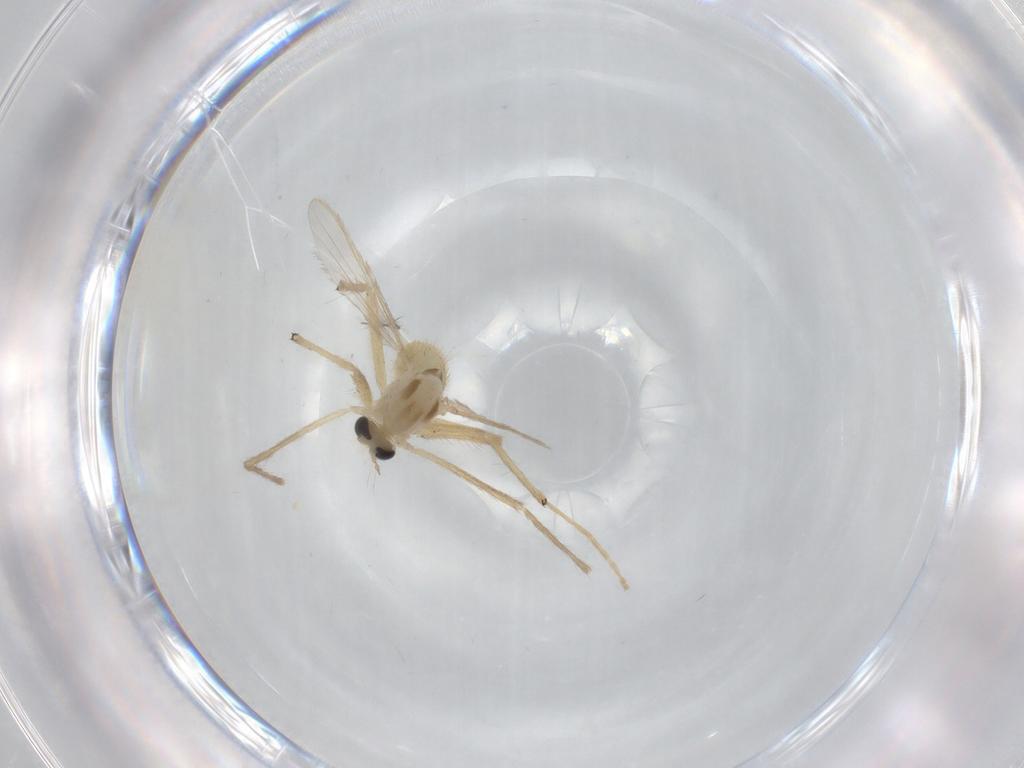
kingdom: Animalia
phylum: Arthropoda
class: Insecta
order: Diptera
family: Chironomidae
